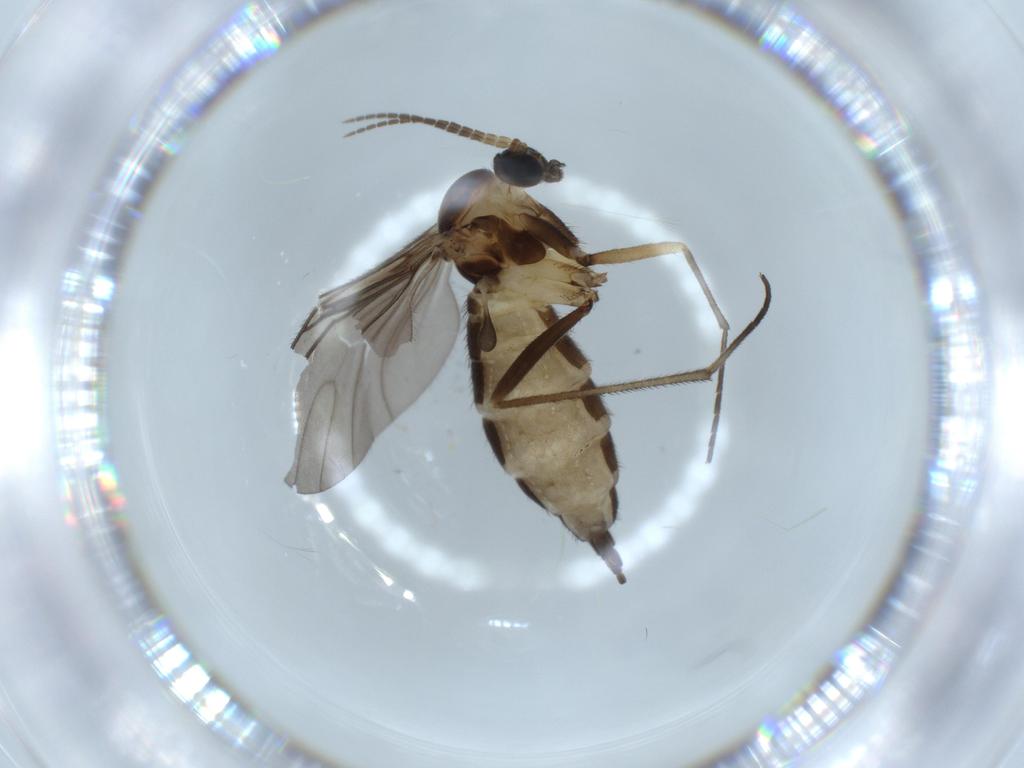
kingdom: Animalia
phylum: Arthropoda
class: Insecta
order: Diptera
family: Sciaridae
